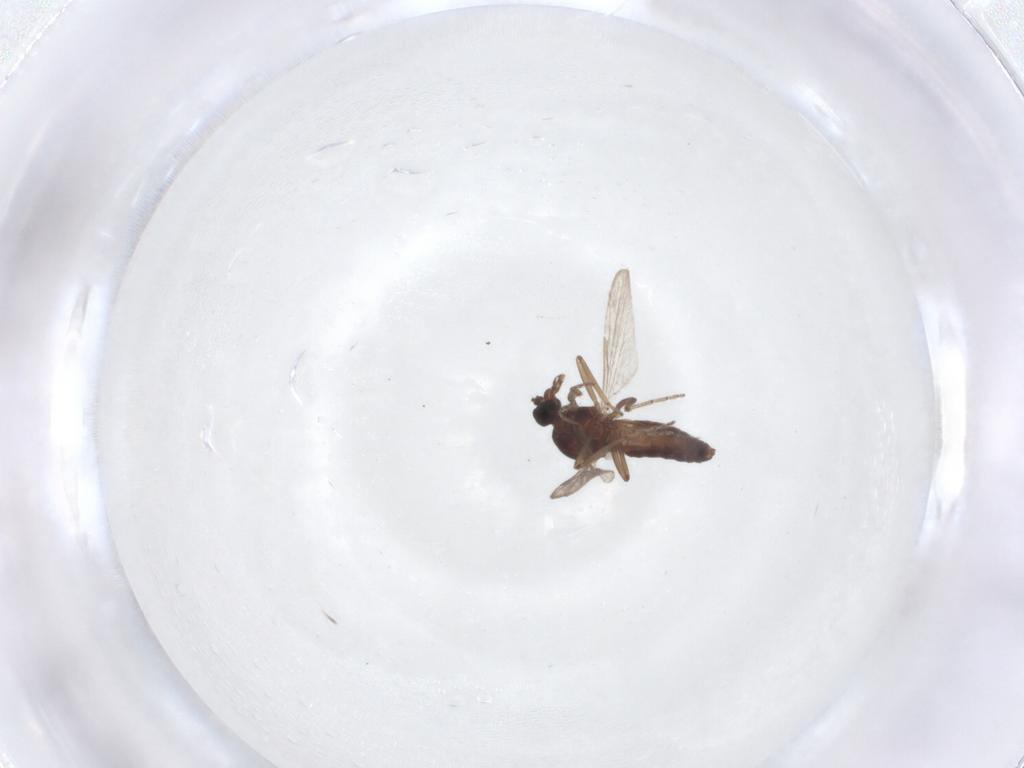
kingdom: Animalia
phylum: Arthropoda
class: Insecta
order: Diptera
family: Ceratopogonidae
